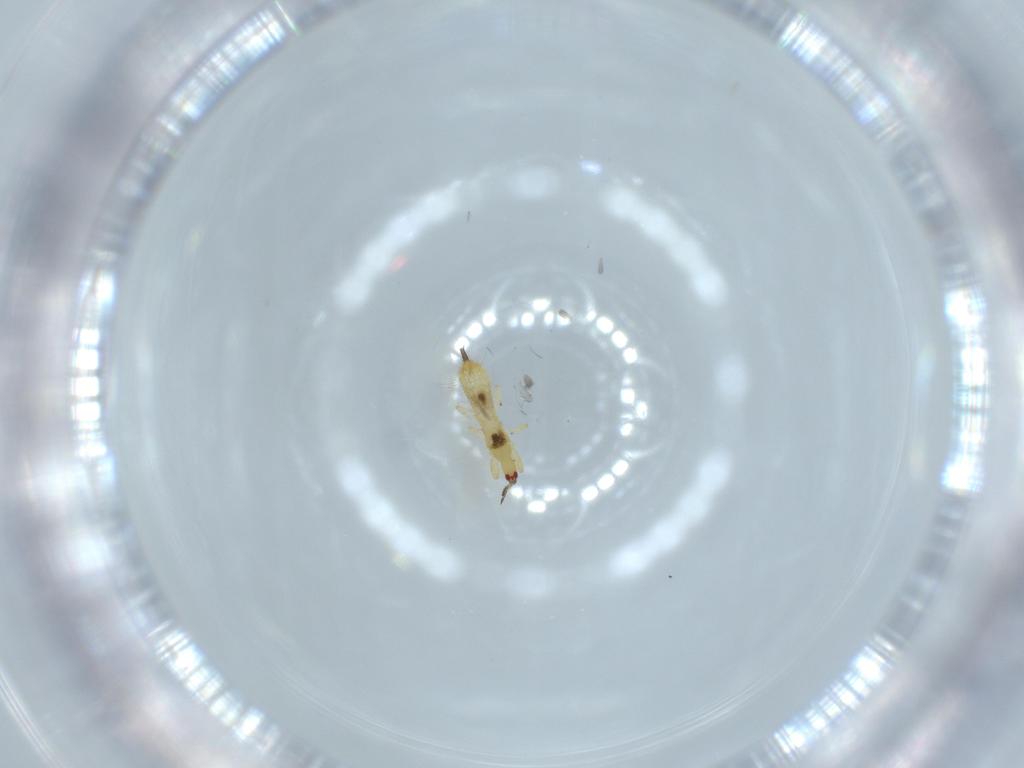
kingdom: Animalia
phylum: Arthropoda
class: Insecta
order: Thysanoptera
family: Phlaeothripidae
